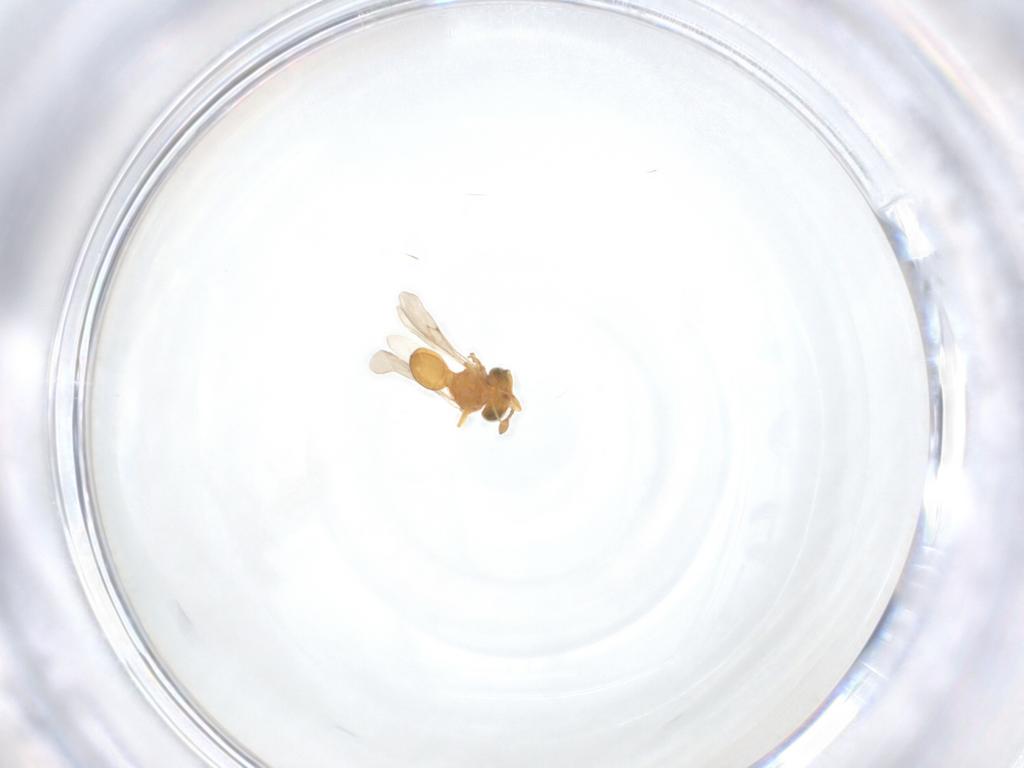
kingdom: Animalia
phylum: Arthropoda
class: Insecta
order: Hymenoptera
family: Scelionidae
